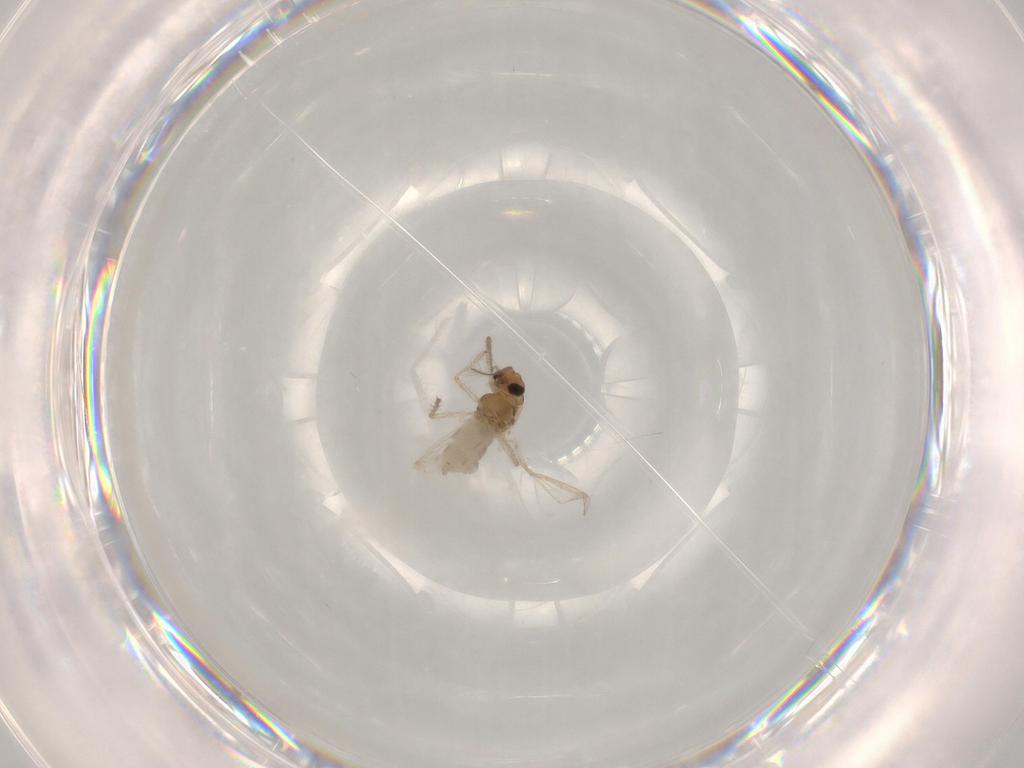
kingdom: Animalia
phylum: Arthropoda
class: Insecta
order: Diptera
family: Chironomidae
